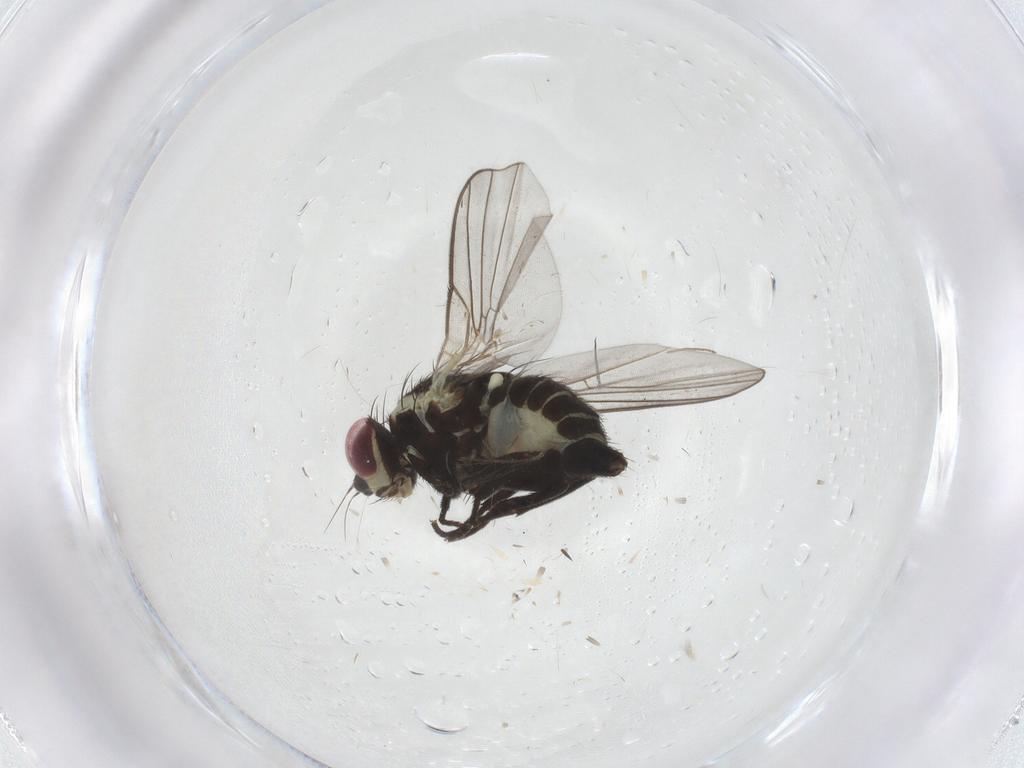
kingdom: Animalia
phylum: Arthropoda
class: Insecta
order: Diptera
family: Agromyzidae
